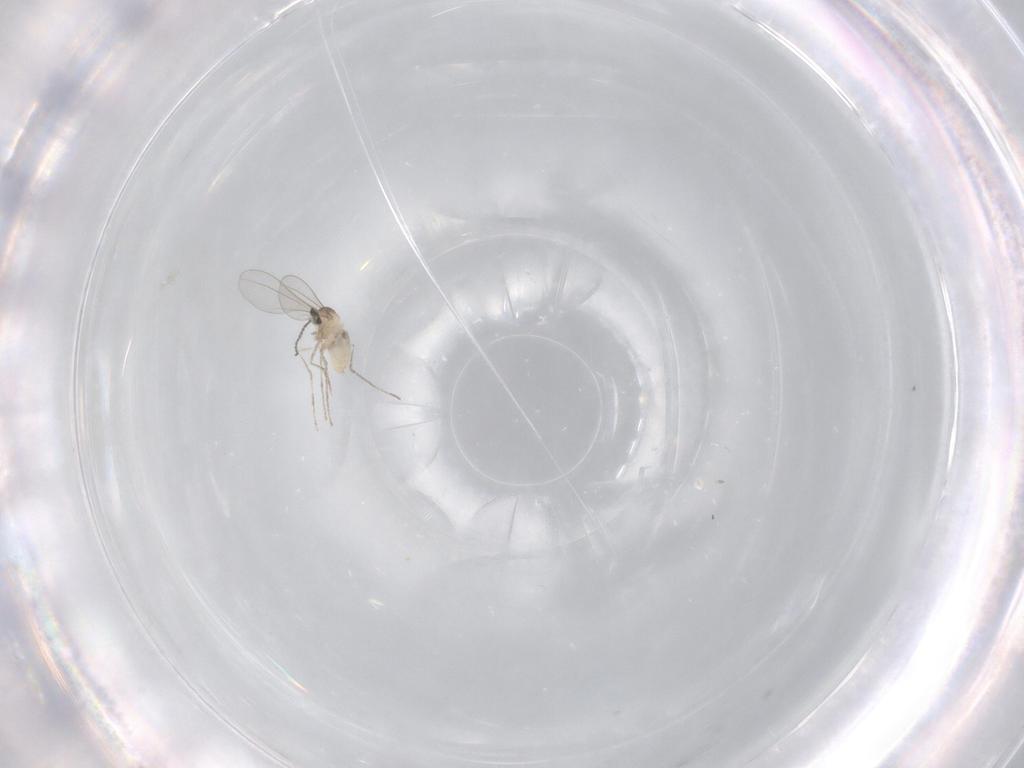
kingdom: Animalia
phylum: Arthropoda
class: Insecta
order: Diptera
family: Cecidomyiidae
